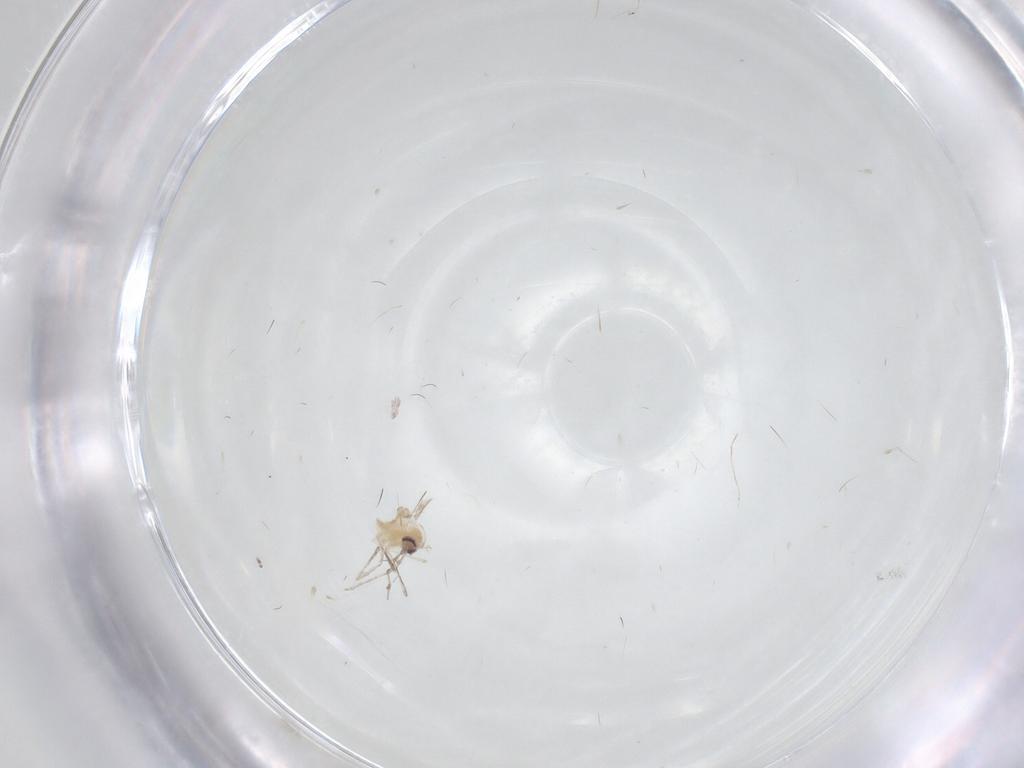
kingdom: Animalia
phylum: Arthropoda
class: Insecta
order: Diptera
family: Cecidomyiidae
